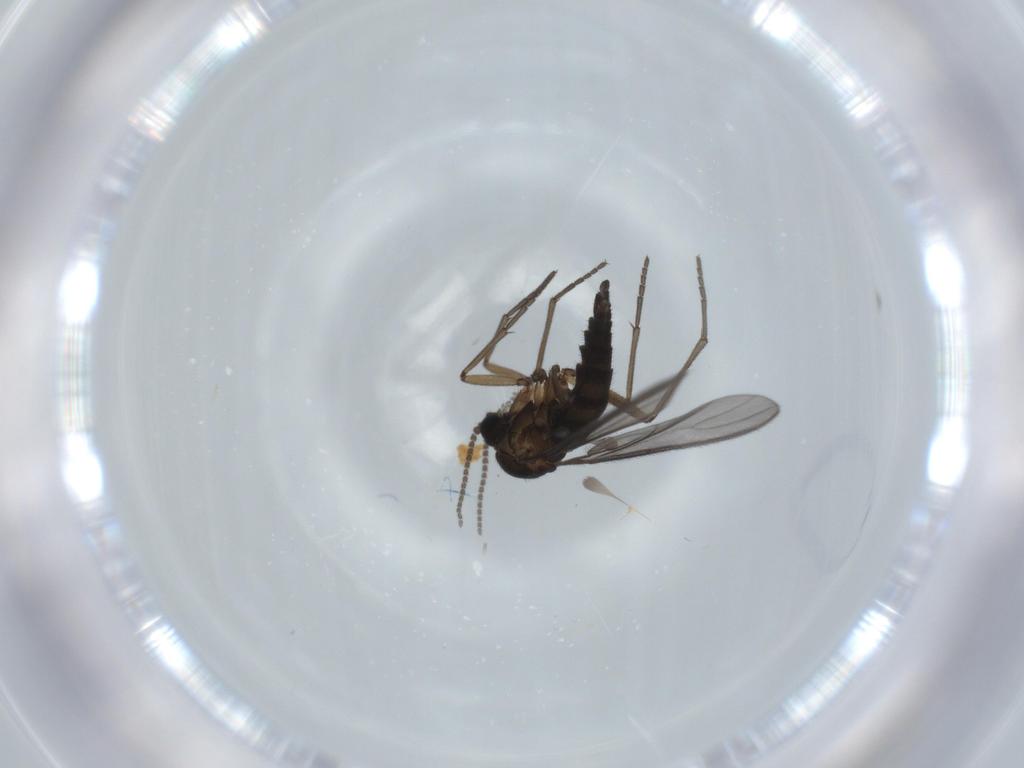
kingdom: Animalia
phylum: Arthropoda
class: Insecta
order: Diptera
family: Sciaridae
